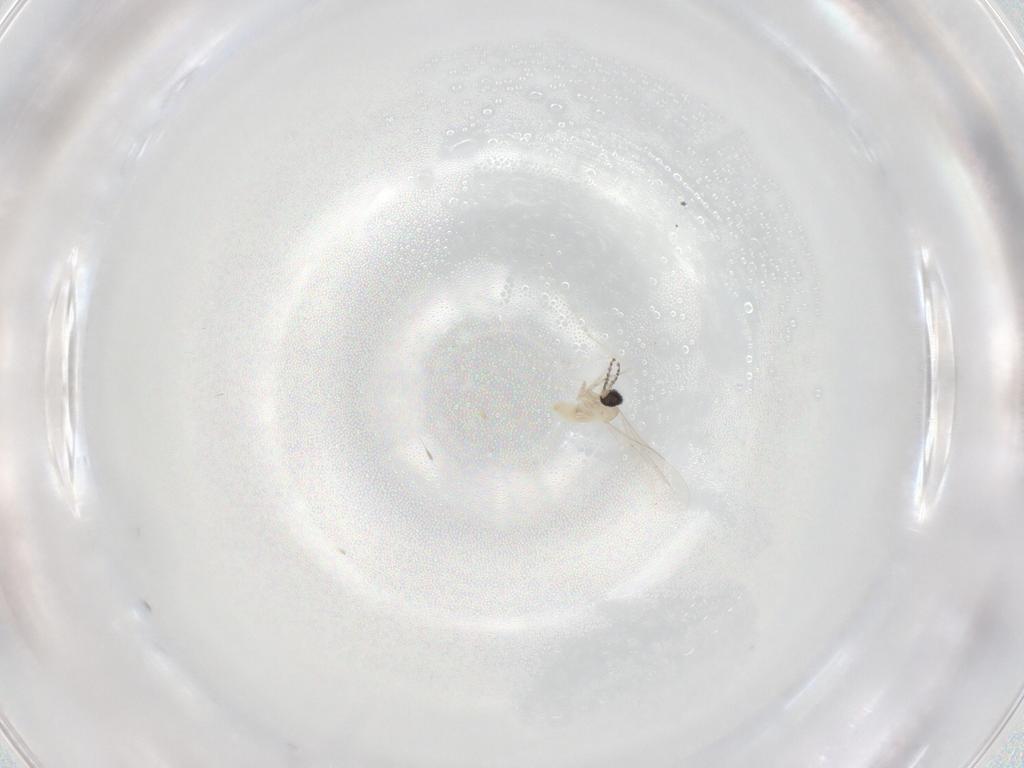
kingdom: Animalia
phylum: Arthropoda
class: Insecta
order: Diptera
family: Cecidomyiidae
